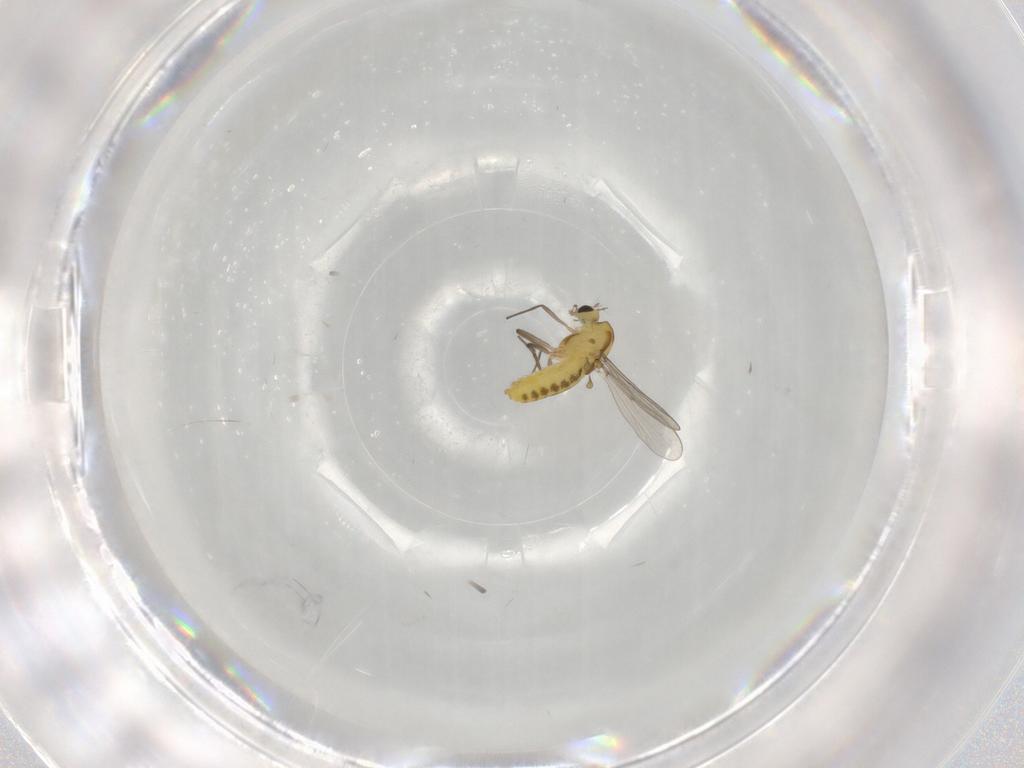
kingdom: Animalia
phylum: Arthropoda
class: Insecta
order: Diptera
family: Chironomidae
